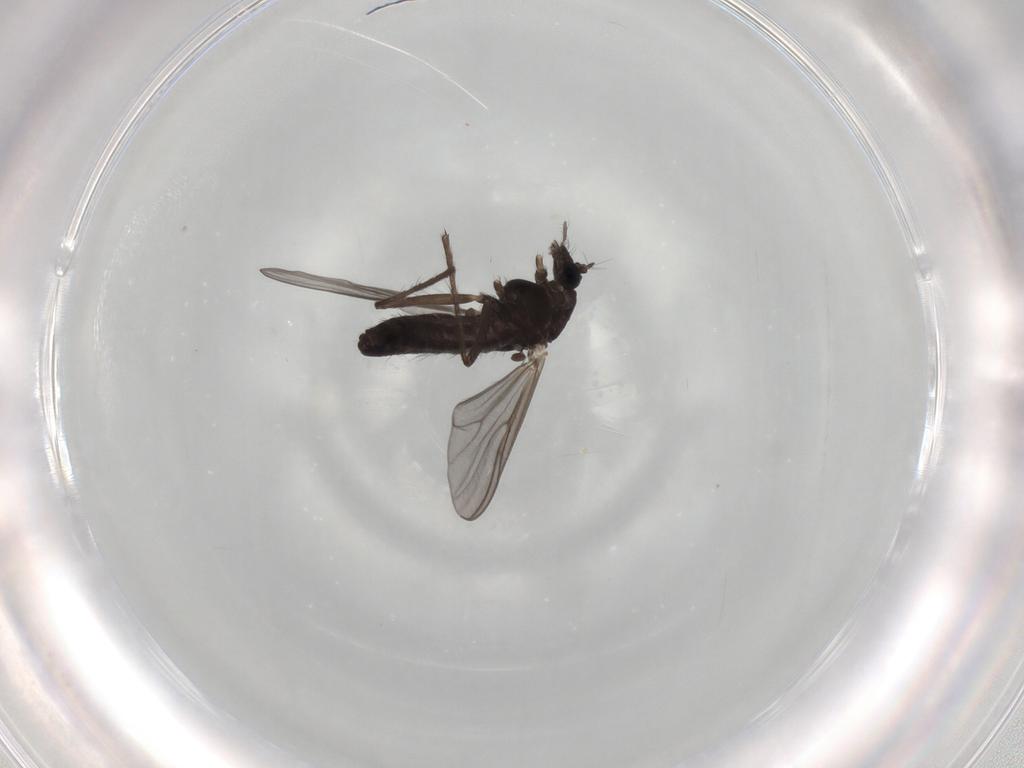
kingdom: Animalia
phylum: Arthropoda
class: Insecta
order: Diptera
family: Chironomidae
